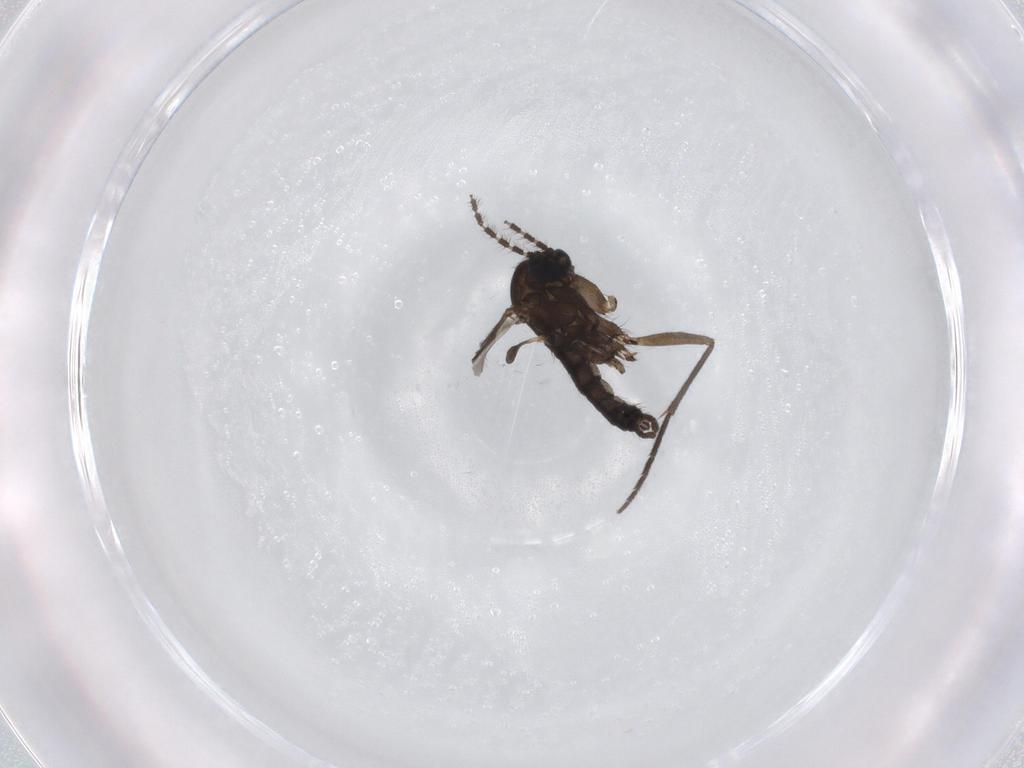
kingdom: Animalia
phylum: Arthropoda
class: Insecta
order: Diptera
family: Sciaridae
